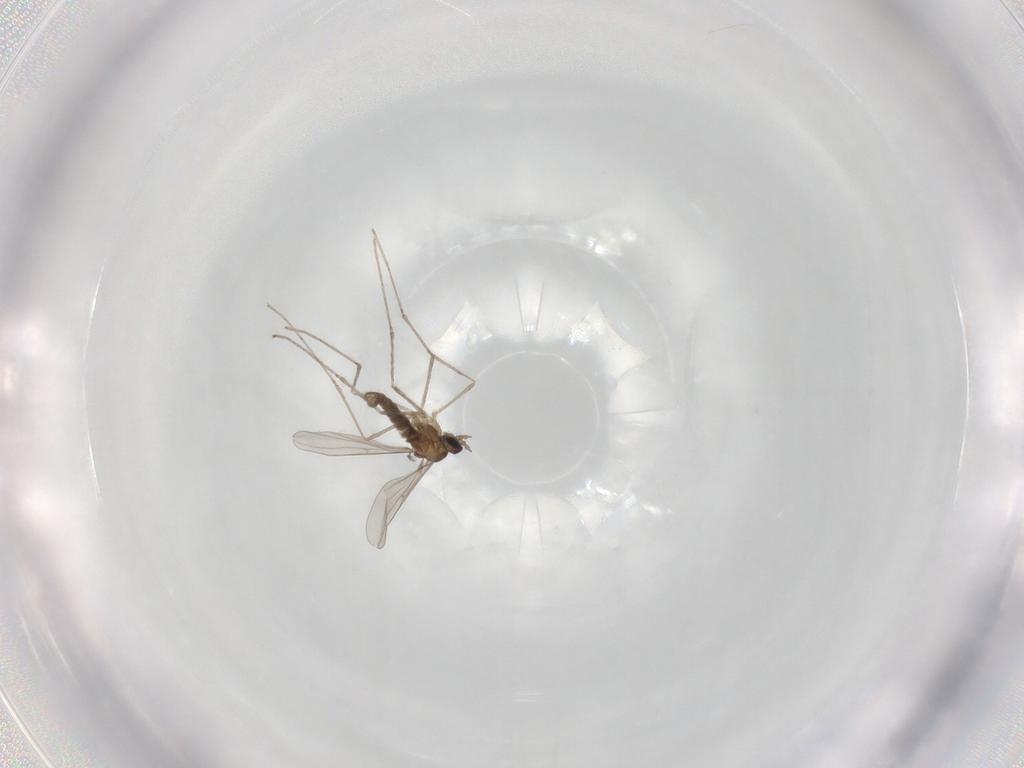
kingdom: Animalia
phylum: Arthropoda
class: Insecta
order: Diptera
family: Cecidomyiidae
